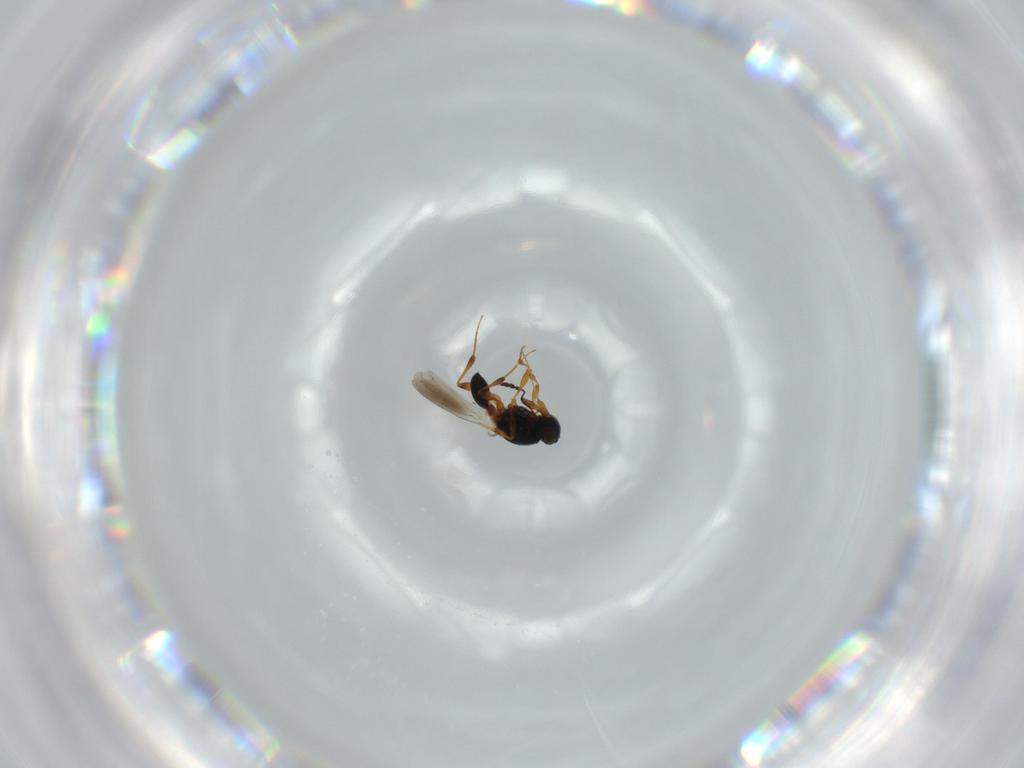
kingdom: Animalia
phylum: Arthropoda
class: Insecta
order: Hymenoptera
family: Platygastridae
